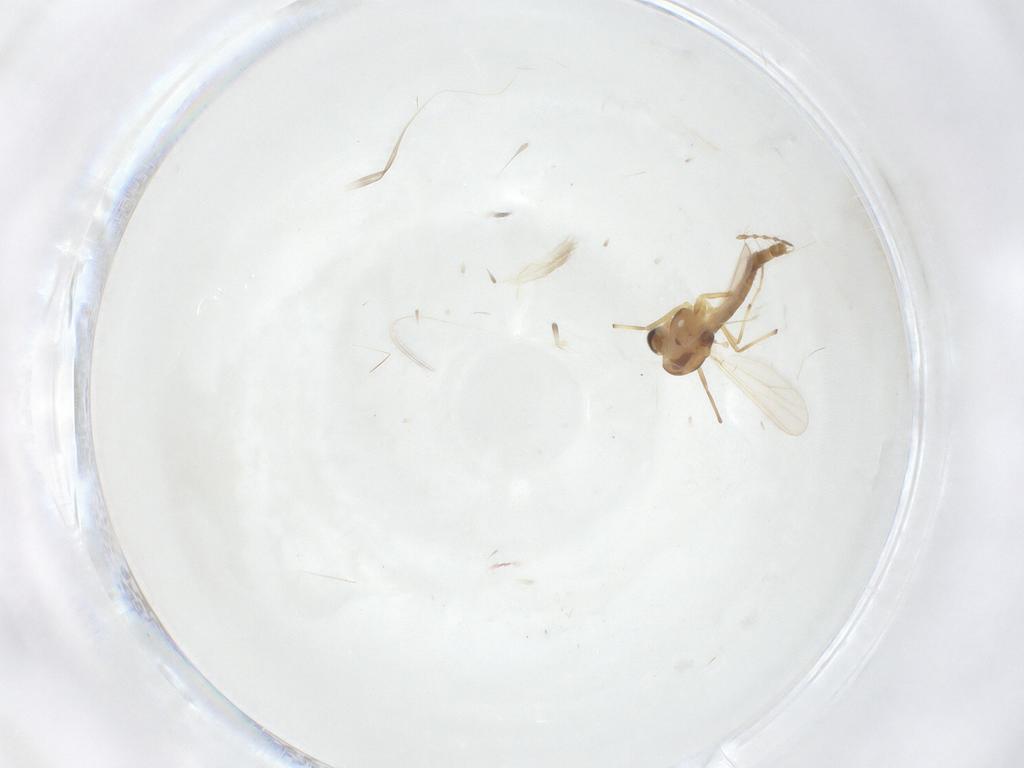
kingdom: Animalia
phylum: Arthropoda
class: Insecta
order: Diptera
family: Chironomidae
